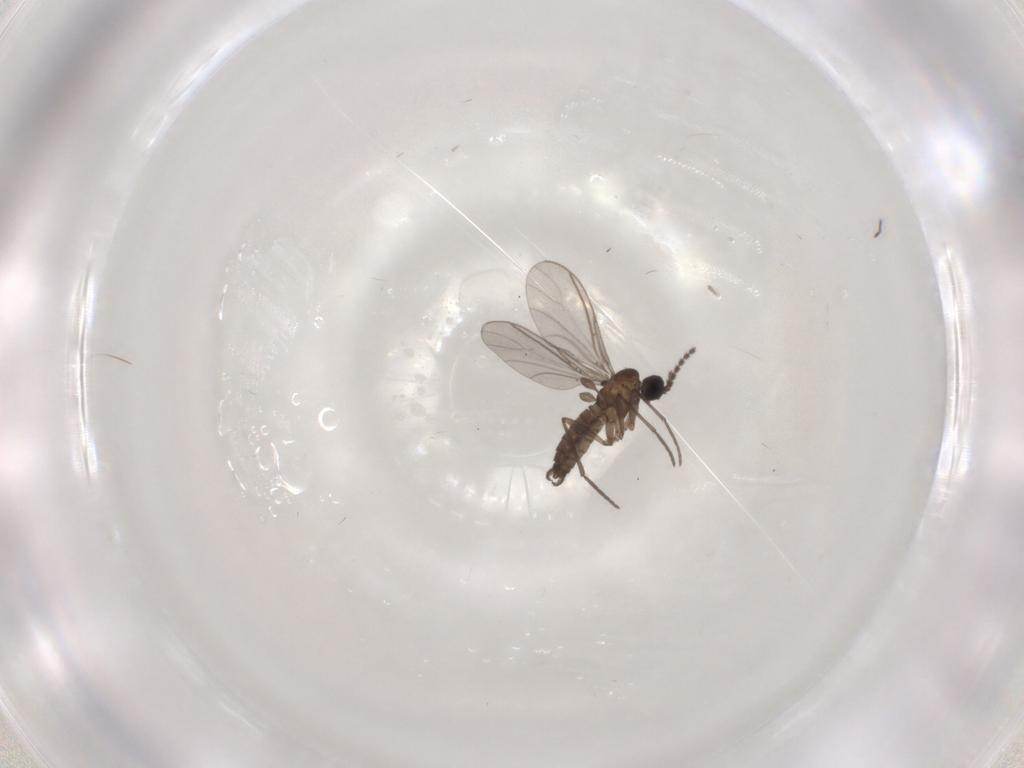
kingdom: Animalia
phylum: Arthropoda
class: Insecta
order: Diptera
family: Sciaridae
